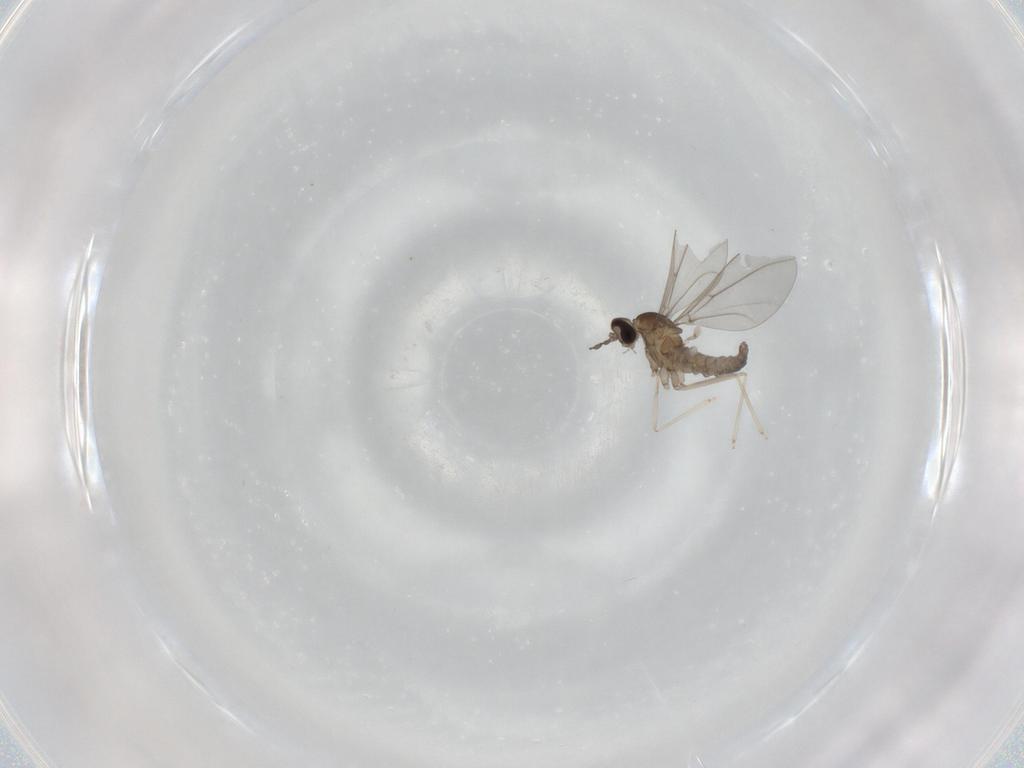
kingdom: Animalia
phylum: Arthropoda
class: Insecta
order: Diptera
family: Cecidomyiidae
